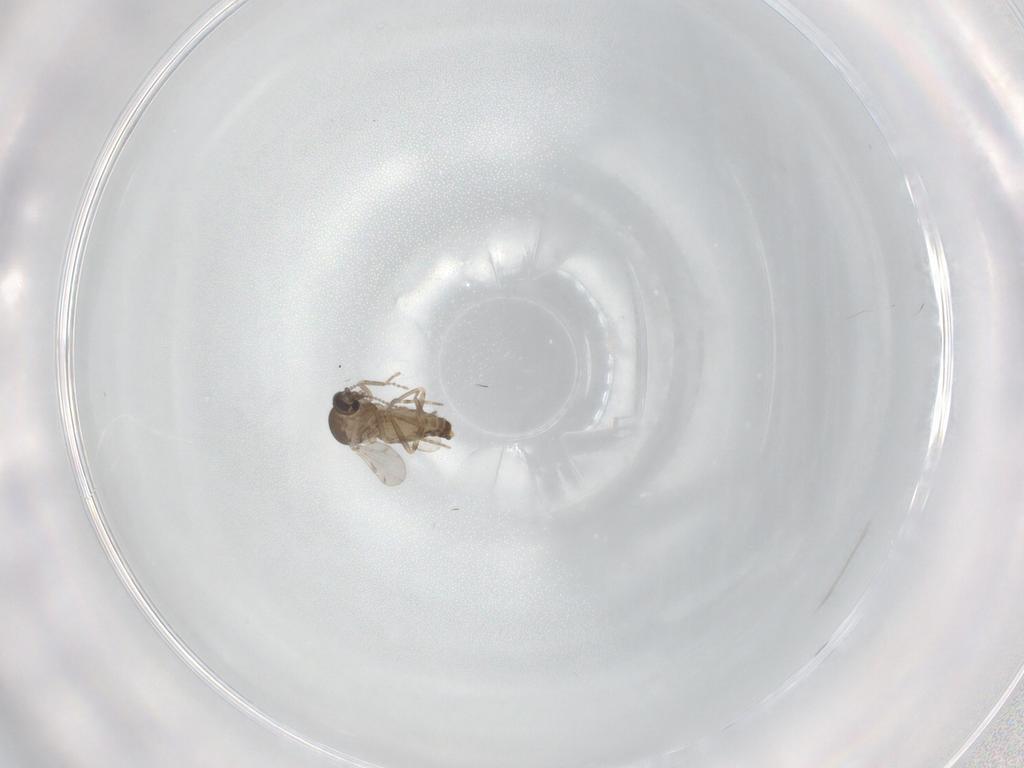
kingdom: Animalia
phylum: Arthropoda
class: Insecta
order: Diptera
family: Ceratopogonidae
